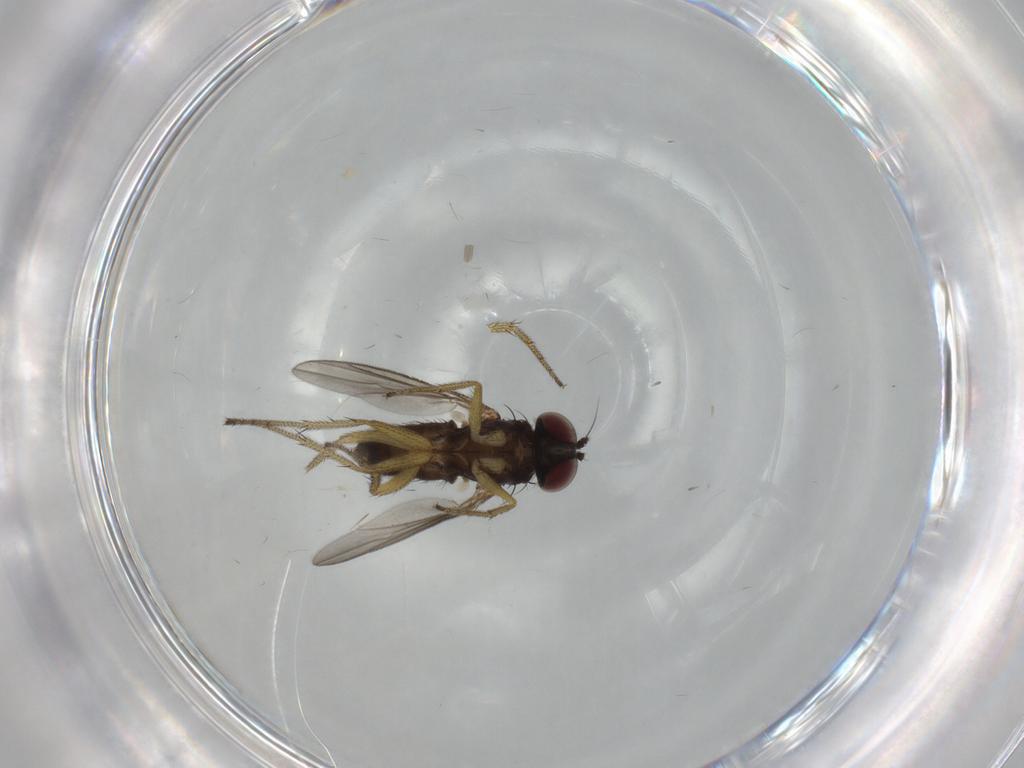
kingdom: Animalia
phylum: Arthropoda
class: Insecta
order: Diptera
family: Dolichopodidae
